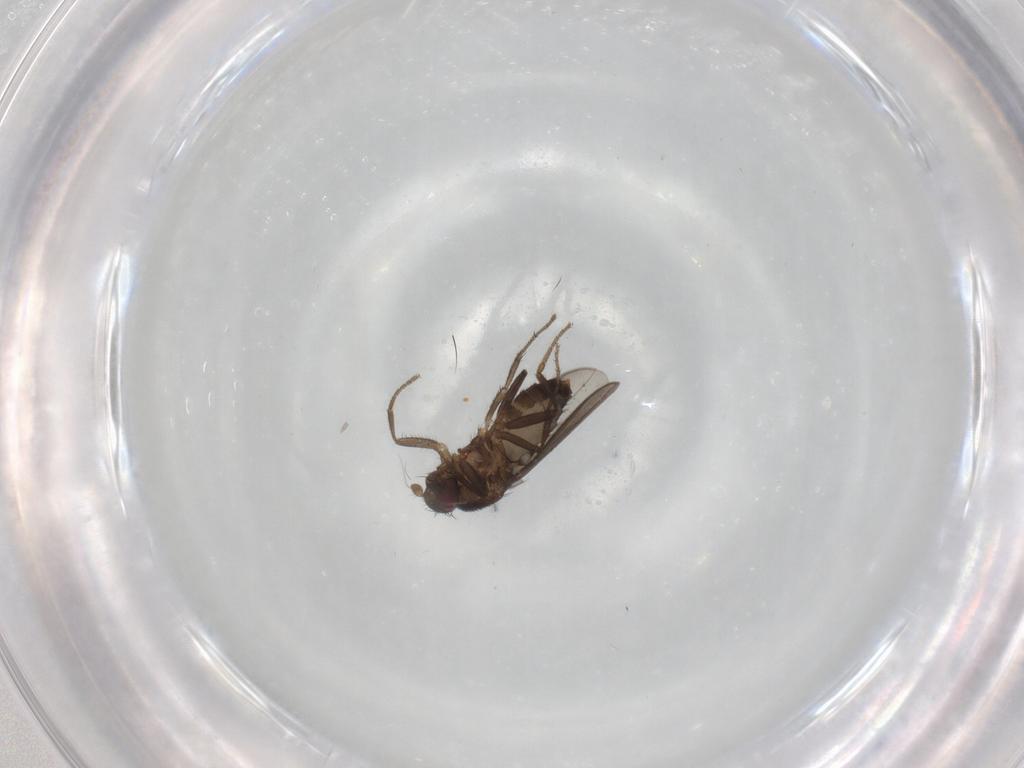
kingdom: Animalia
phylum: Arthropoda
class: Insecta
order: Diptera
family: Sphaeroceridae
